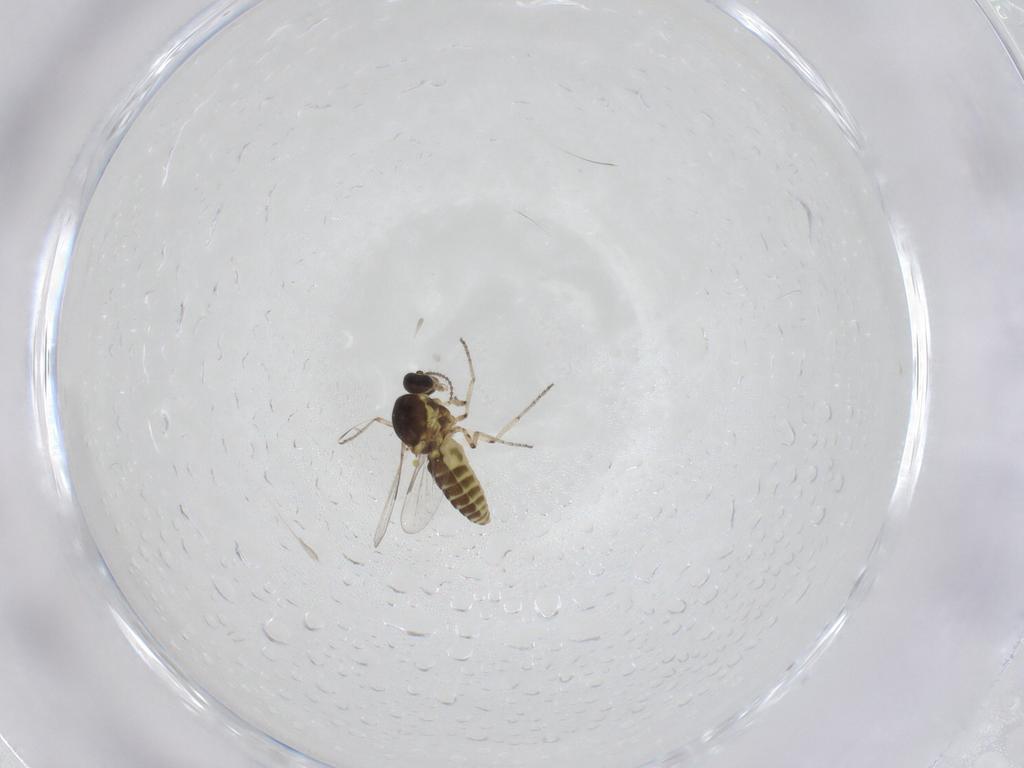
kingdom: Animalia
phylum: Arthropoda
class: Insecta
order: Diptera
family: Ceratopogonidae
